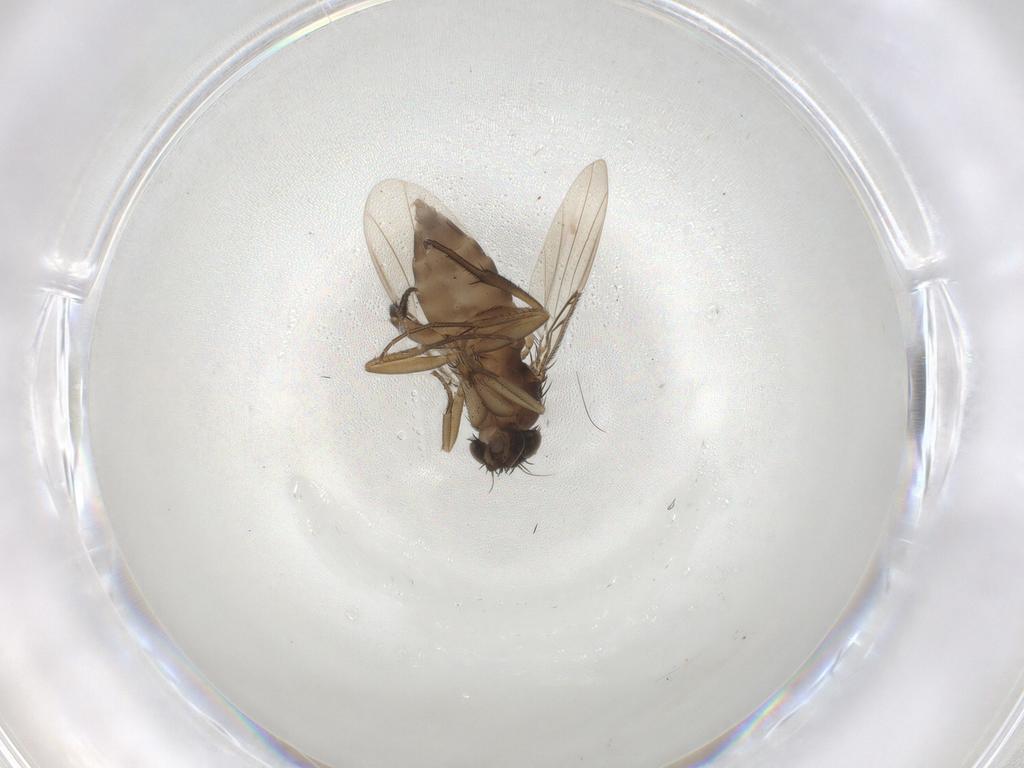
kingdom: Animalia
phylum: Arthropoda
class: Insecta
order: Diptera
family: Phoridae
